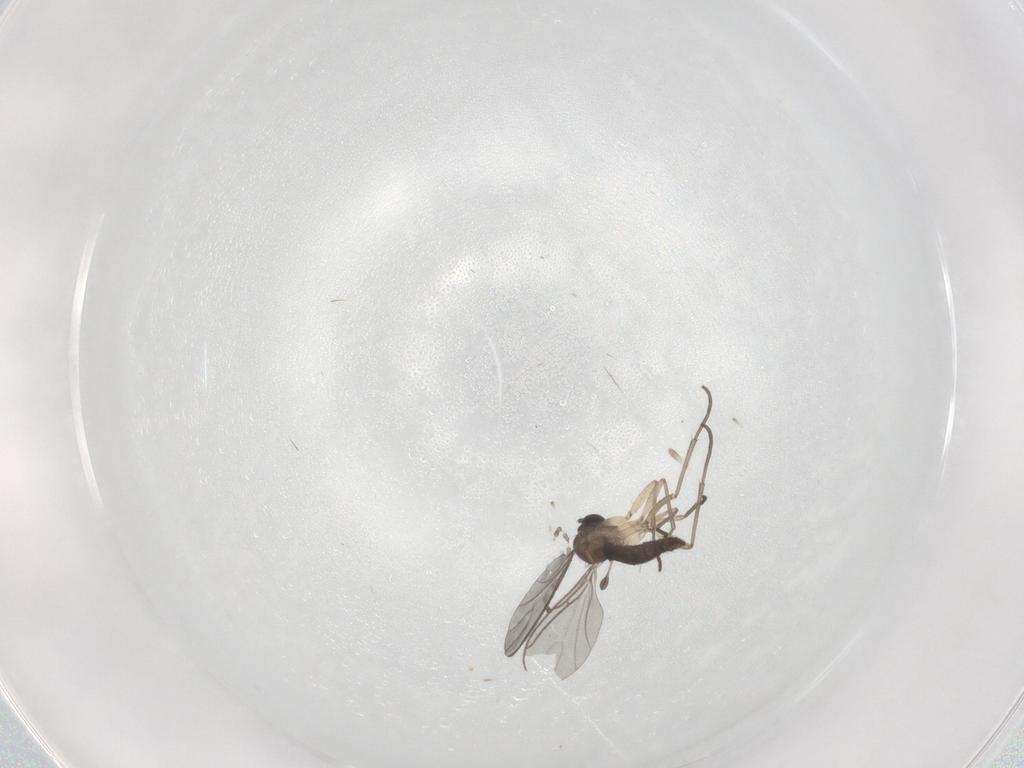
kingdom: Animalia
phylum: Arthropoda
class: Insecta
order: Diptera
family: Sciaridae
